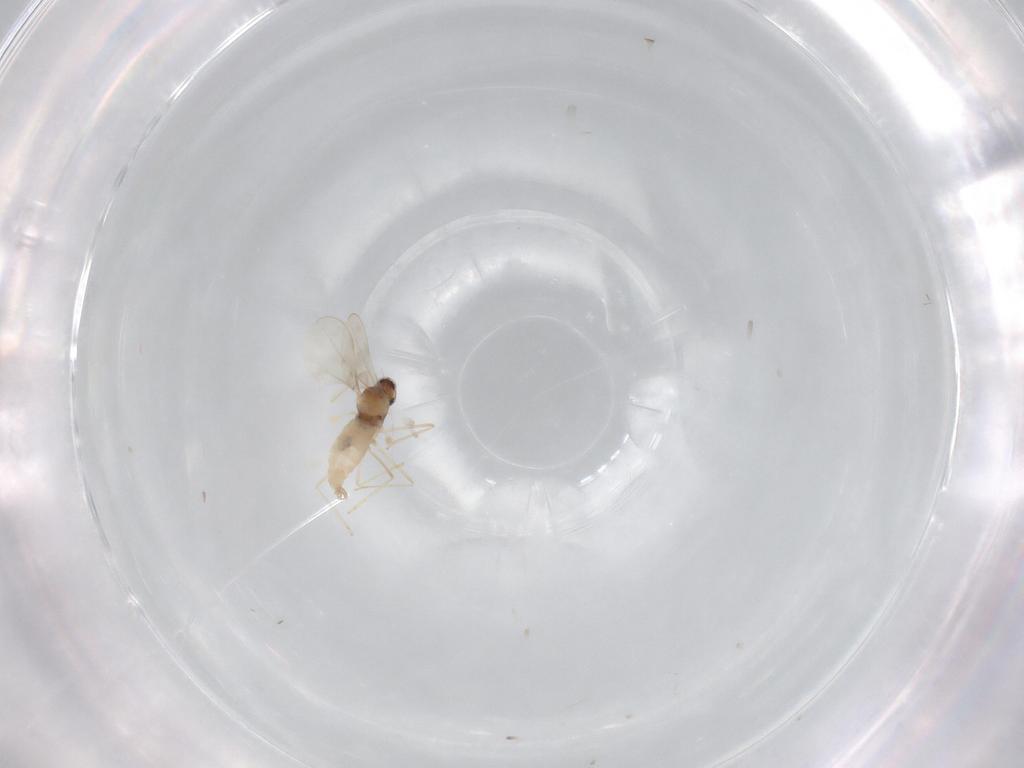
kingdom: Animalia
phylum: Arthropoda
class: Insecta
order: Diptera
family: Cecidomyiidae
